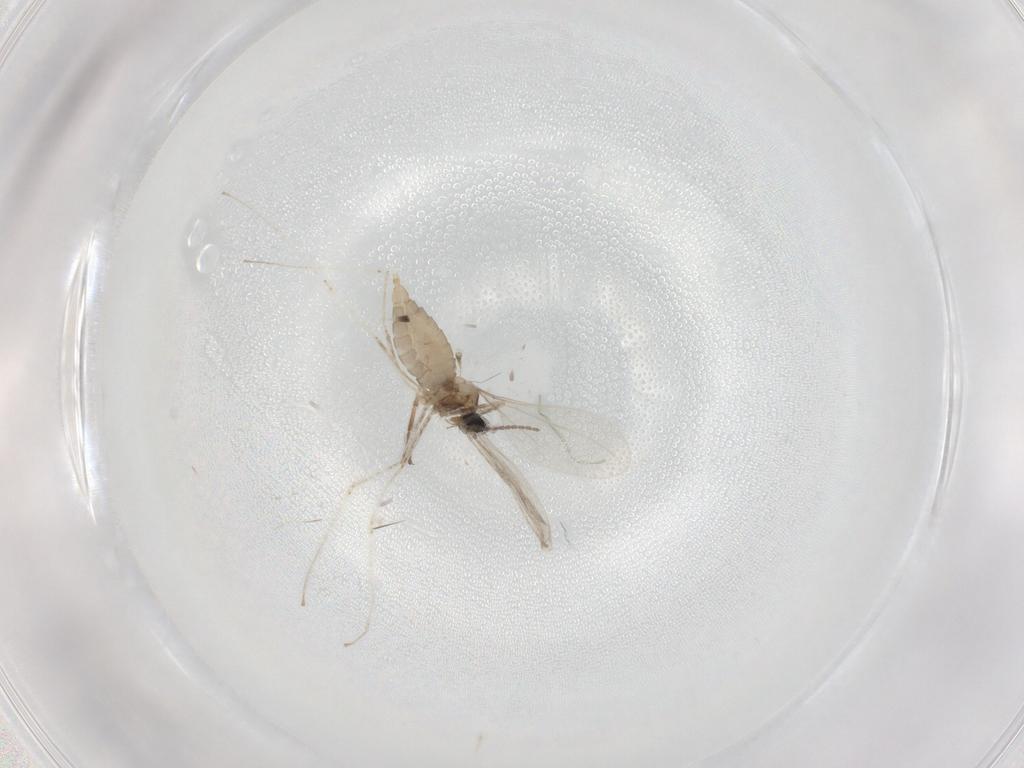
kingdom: Animalia
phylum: Arthropoda
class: Insecta
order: Diptera
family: Cecidomyiidae
